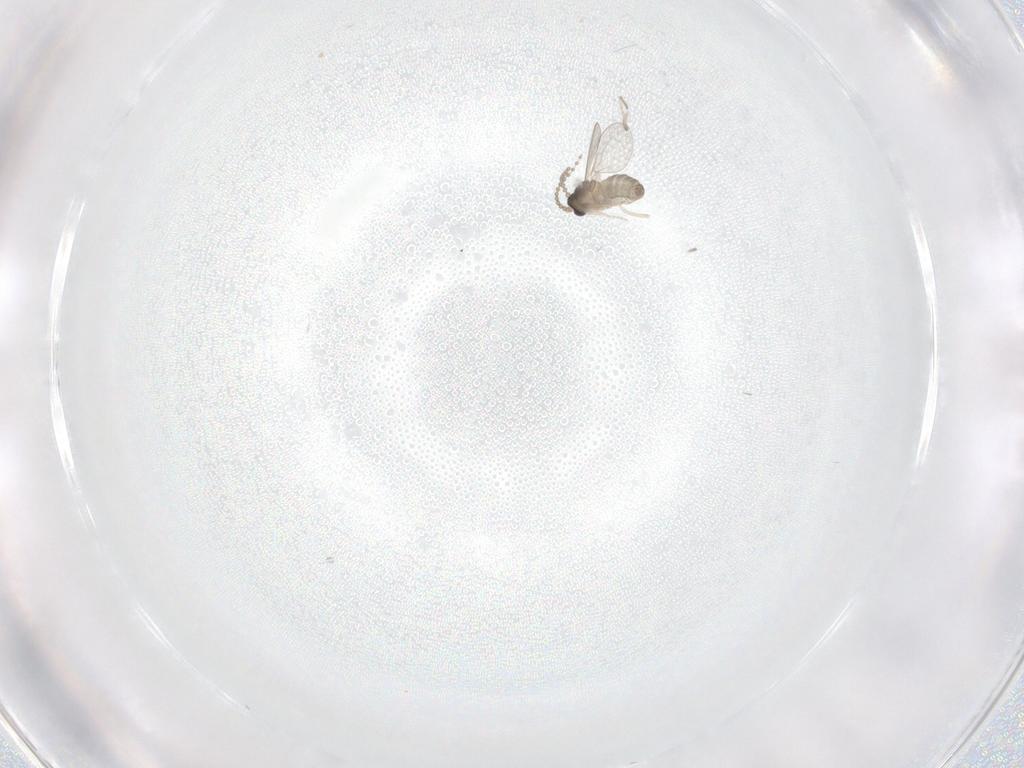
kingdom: Animalia
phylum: Arthropoda
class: Insecta
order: Diptera
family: Cecidomyiidae
